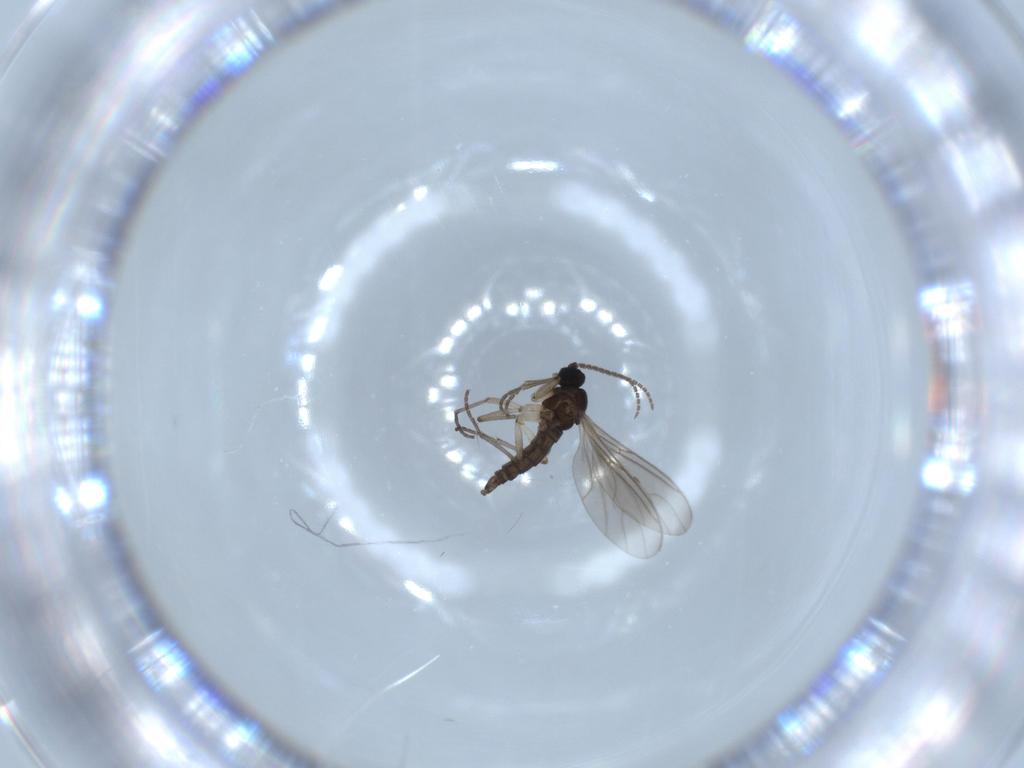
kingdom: Animalia
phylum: Arthropoda
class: Insecta
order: Diptera
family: Sciaridae
